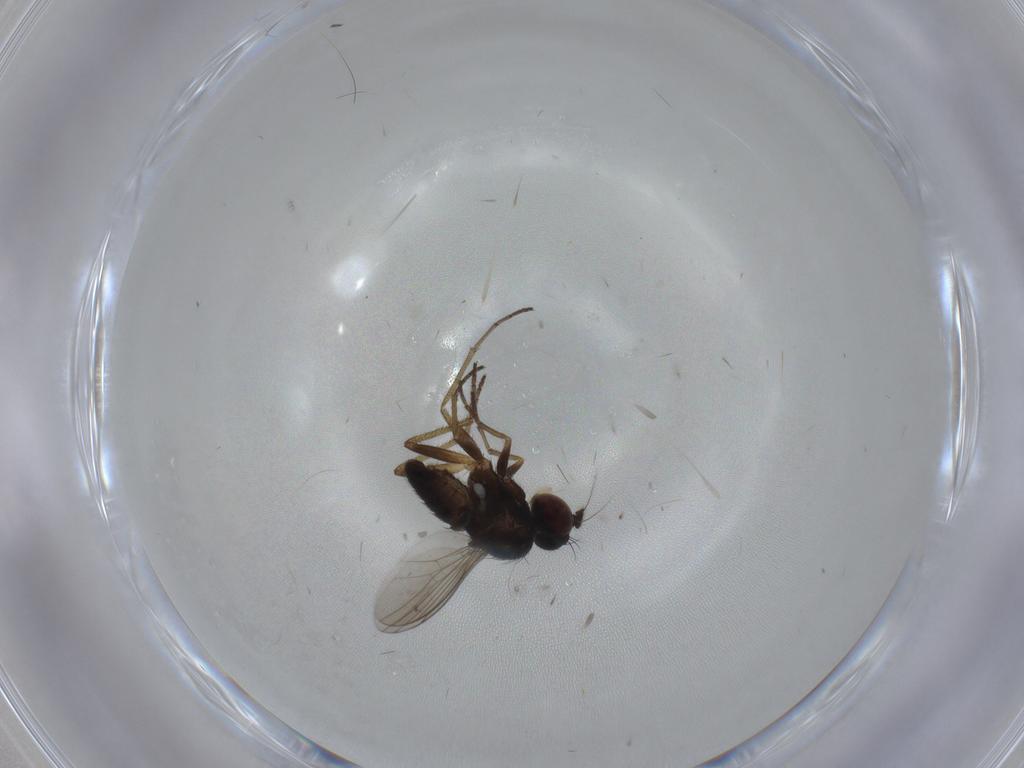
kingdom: Animalia
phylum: Arthropoda
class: Insecta
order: Diptera
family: Dolichopodidae
